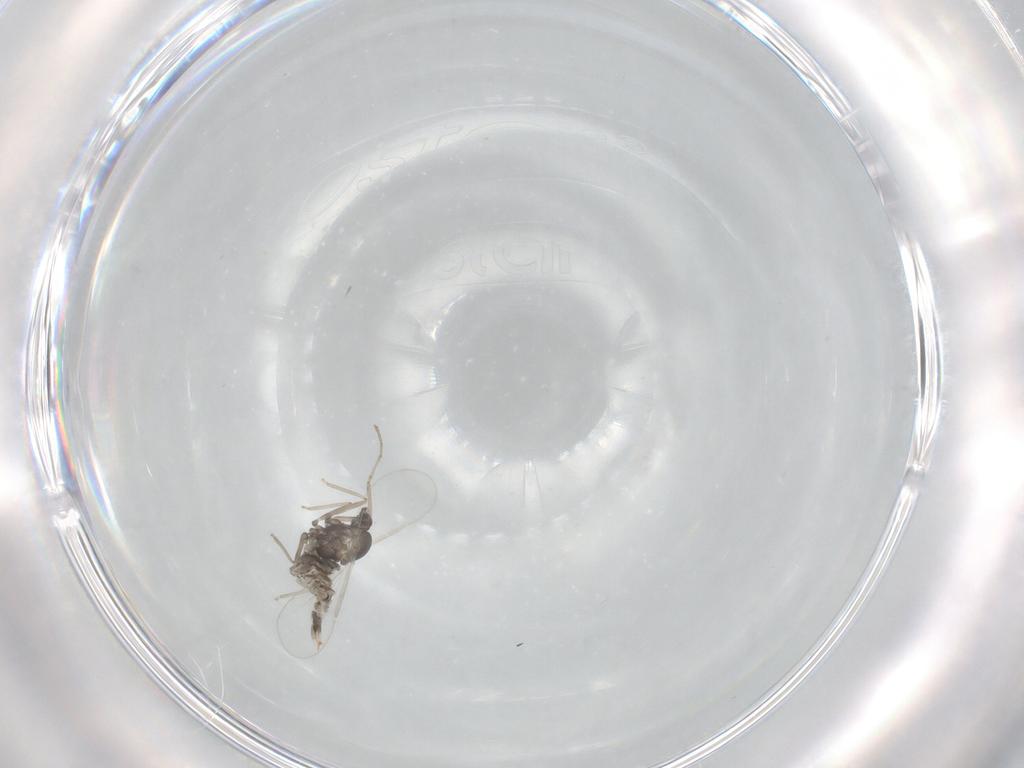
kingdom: Animalia
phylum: Arthropoda
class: Insecta
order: Diptera
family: Cecidomyiidae
